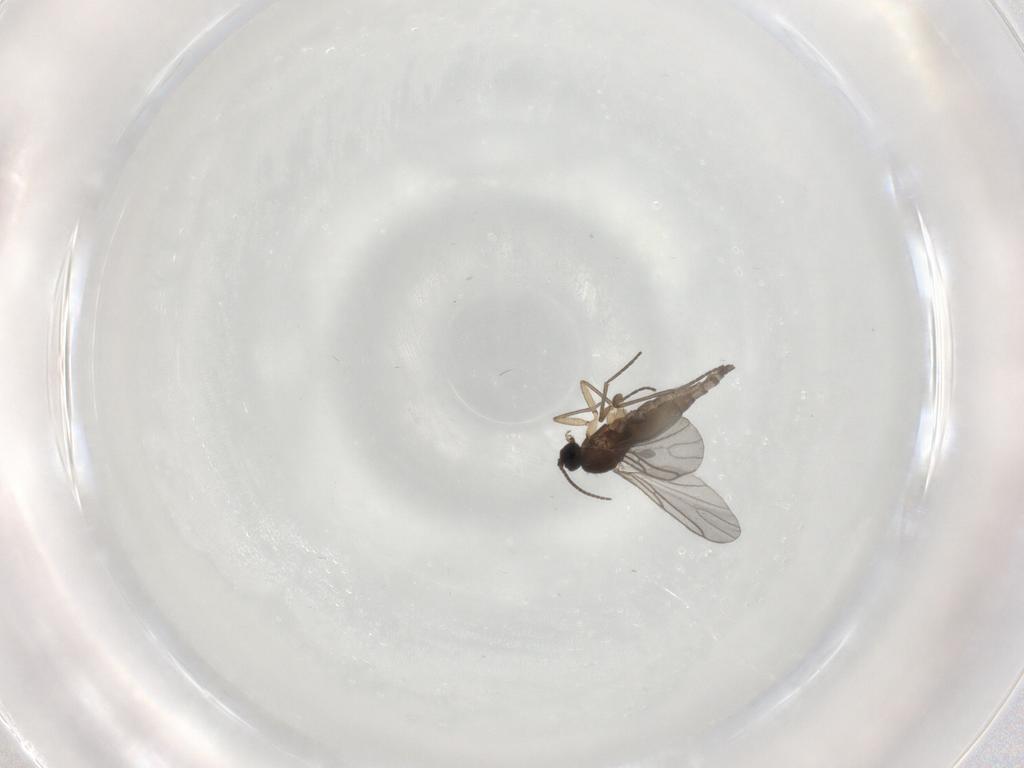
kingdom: Animalia
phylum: Arthropoda
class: Insecta
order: Diptera
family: Sciaridae
